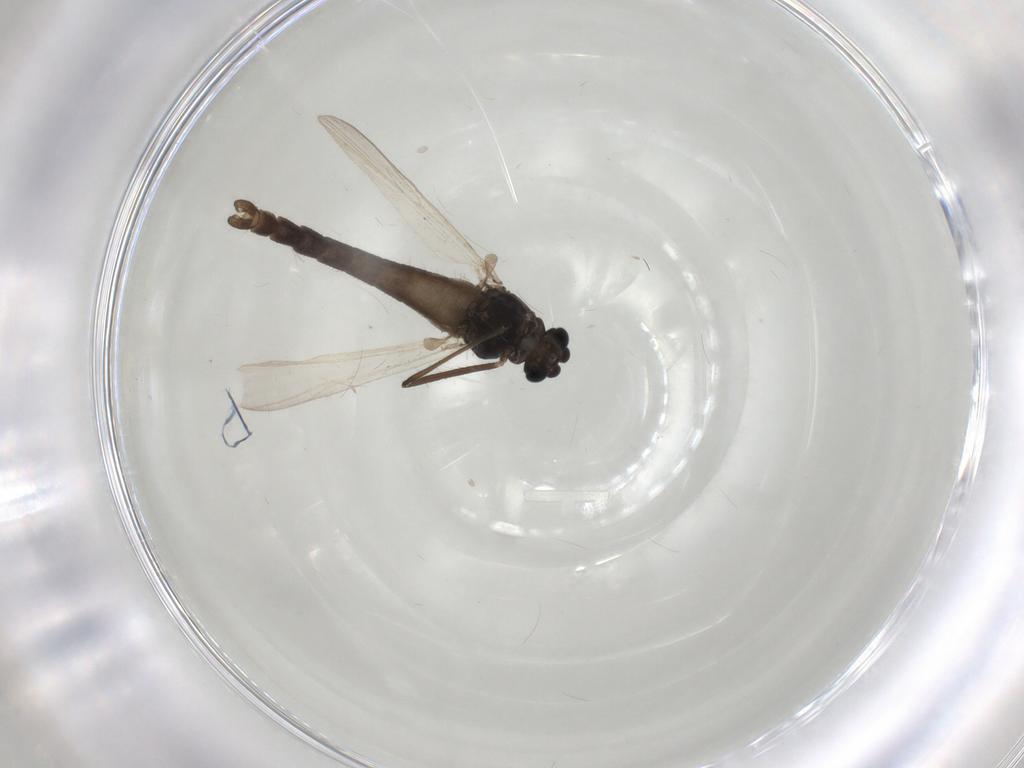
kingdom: Animalia
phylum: Arthropoda
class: Insecta
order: Diptera
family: Chironomidae
